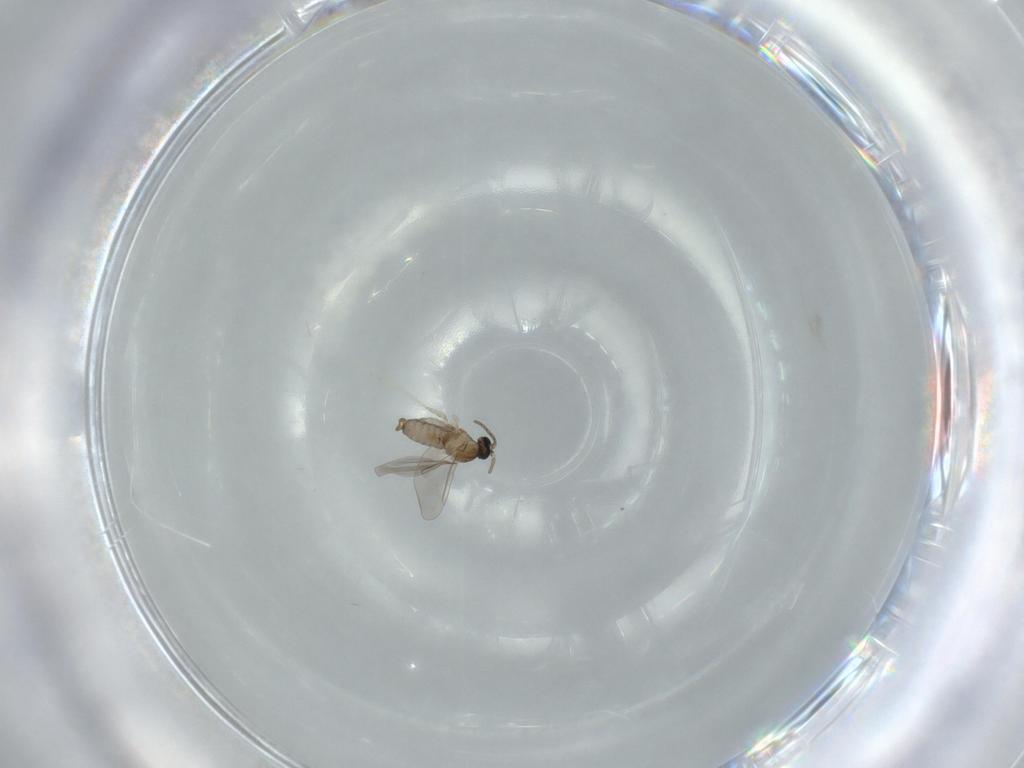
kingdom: Animalia
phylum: Arthropoda
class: Insecta
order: Diptera
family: Cecidomyiidae
